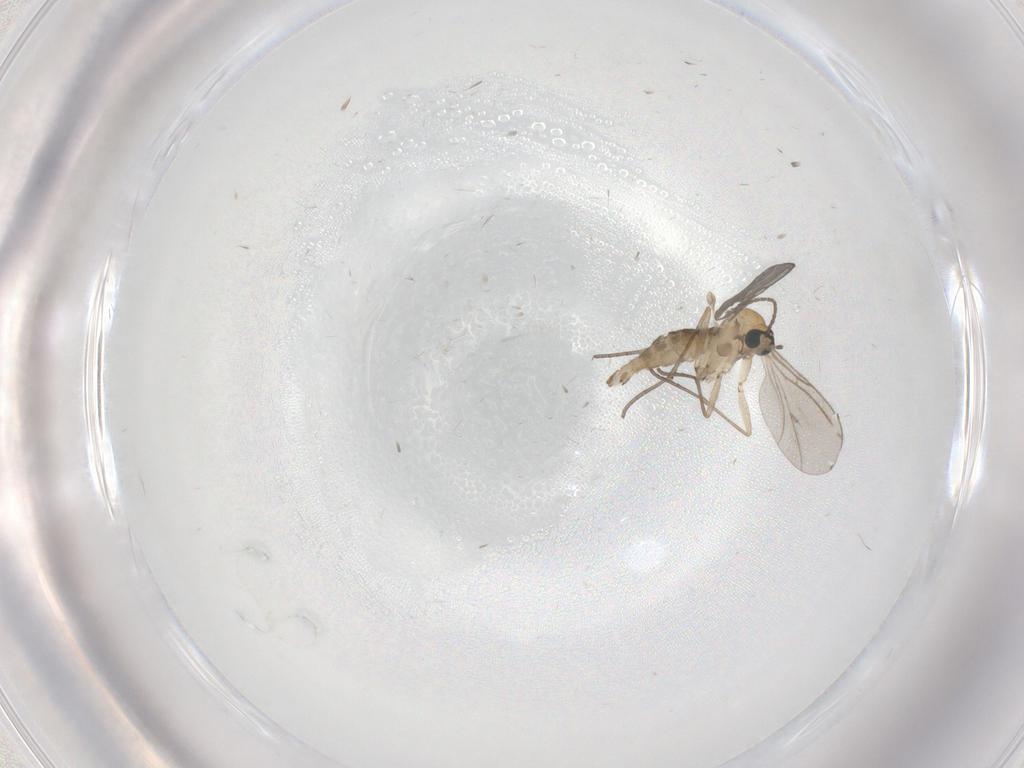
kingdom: Animalia
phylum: Arthropoda
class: Insecta
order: Diptera
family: Sciaridae
